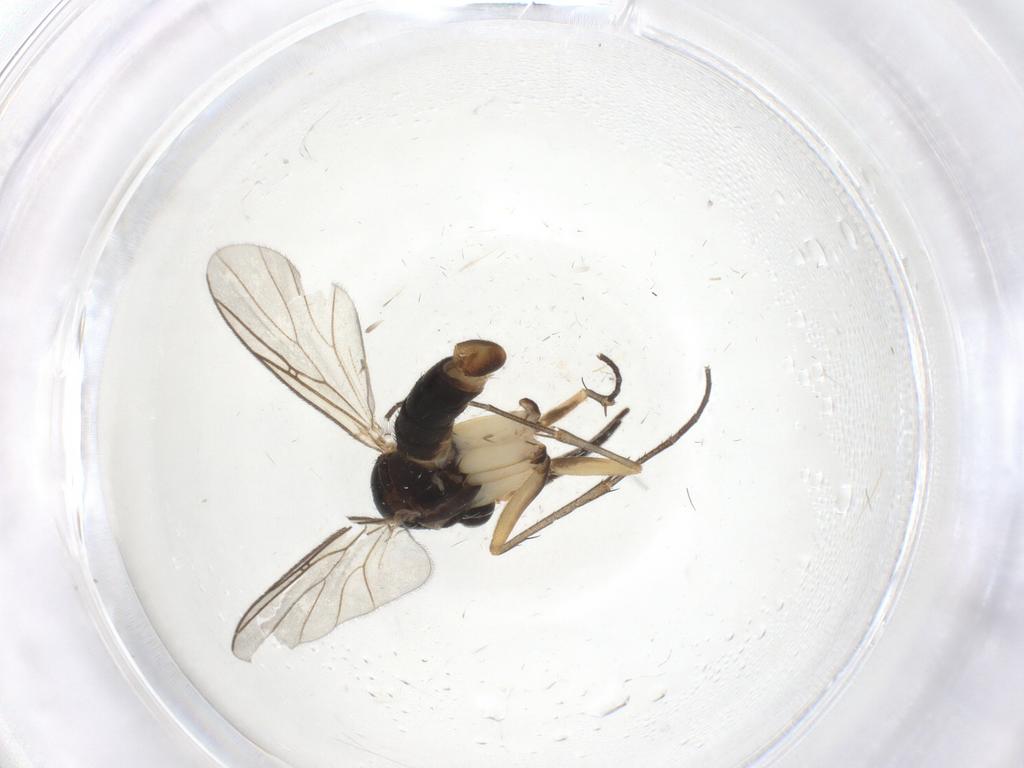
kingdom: Animalia
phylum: Arthropoda
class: Insecta
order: Diptera
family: Mycetophilidae
